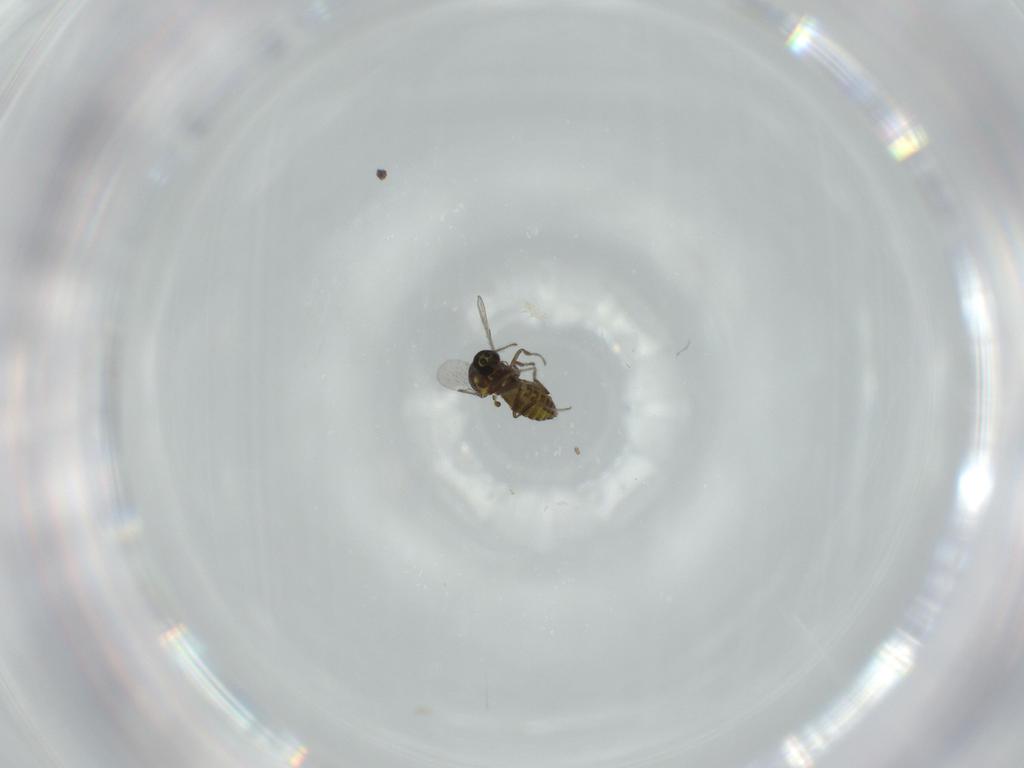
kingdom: Animalia
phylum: Arthropoda
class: Insecta
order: Diptera
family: Ceratopogonidae
